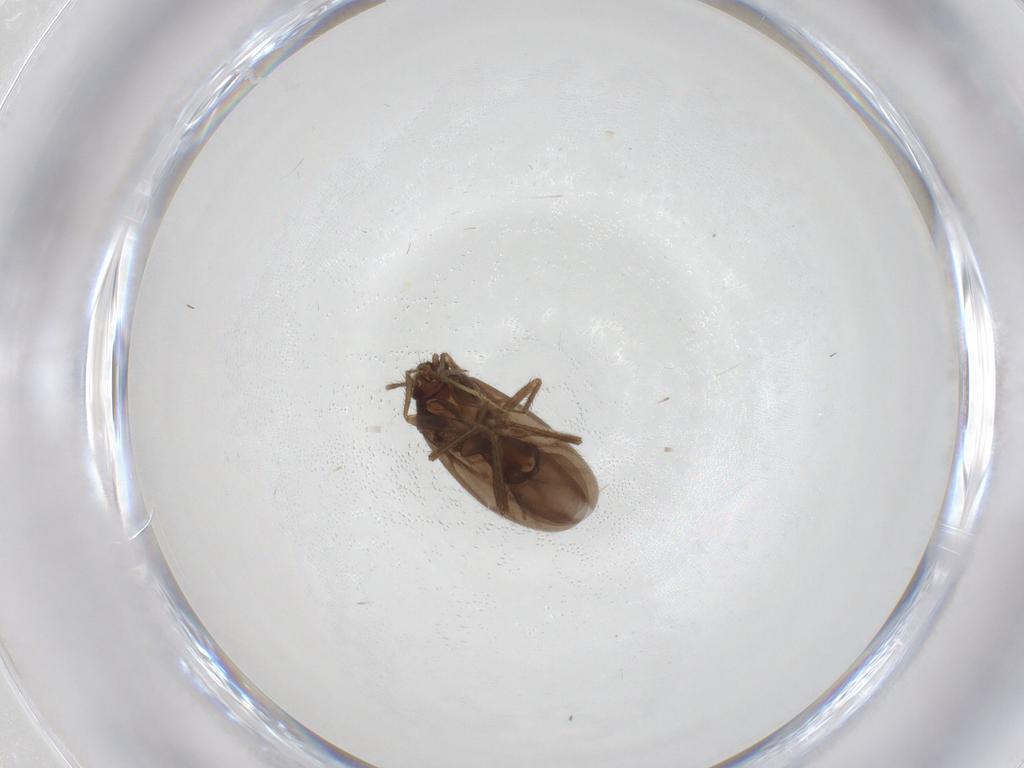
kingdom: Animalia
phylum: Arthropoda
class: Insecta
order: Hemiptera
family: Ceratocombidae
